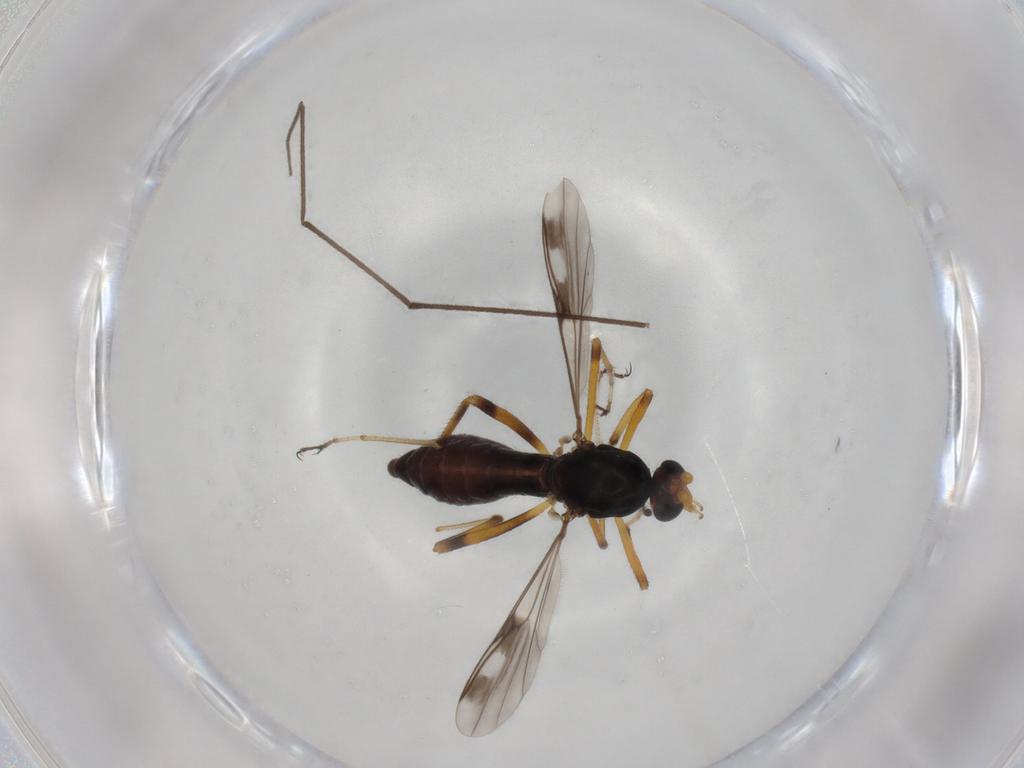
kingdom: Animalia
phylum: Arthropoda
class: Insecta
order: Diptera
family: Chironomidae
